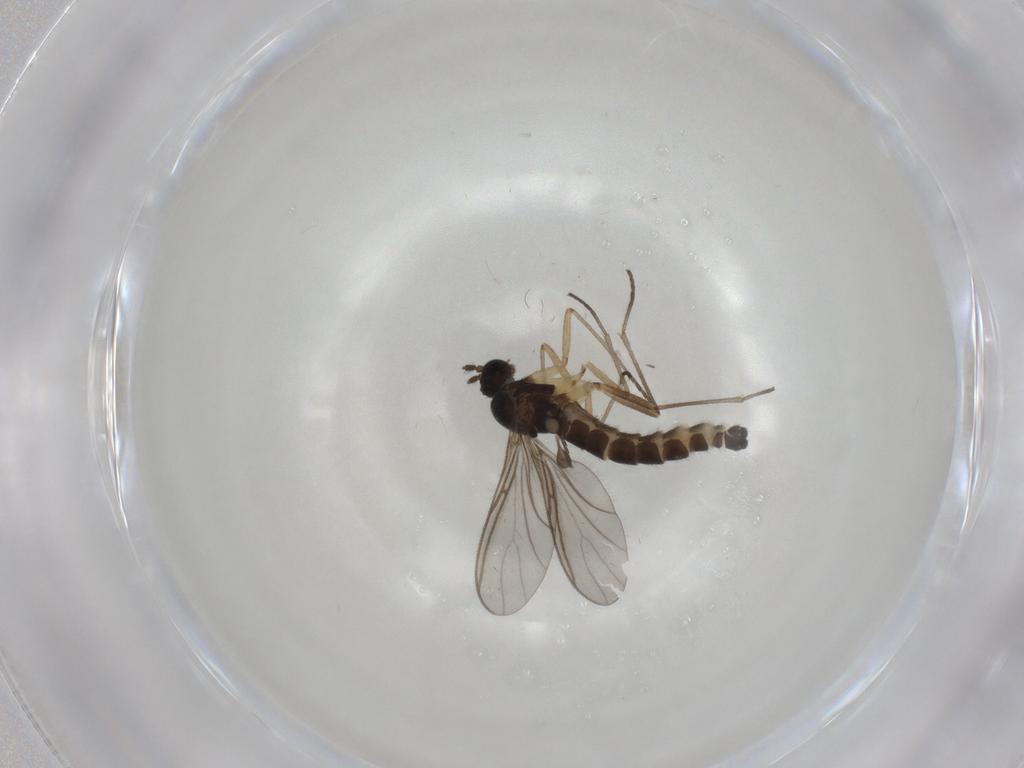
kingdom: Animalia
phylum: Arthropoda
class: Insecta
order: Diptera
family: Sciaridae
